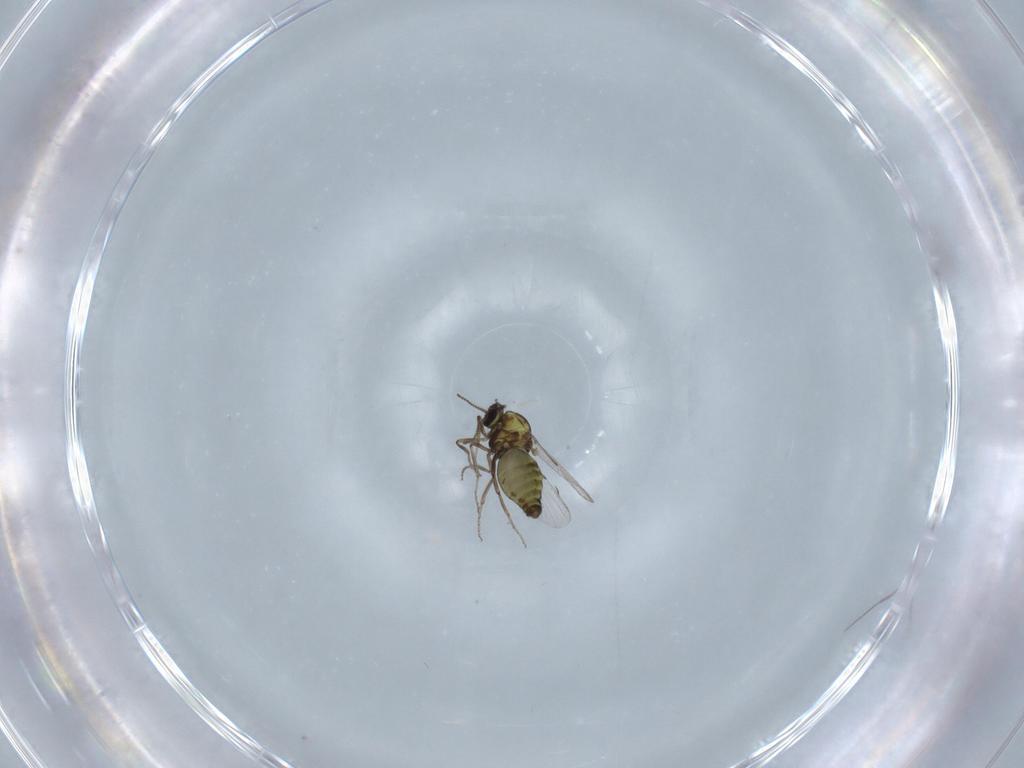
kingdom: Animalia
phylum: Arthropoda
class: Insecta
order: Diptera
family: Ceratopogonidae
